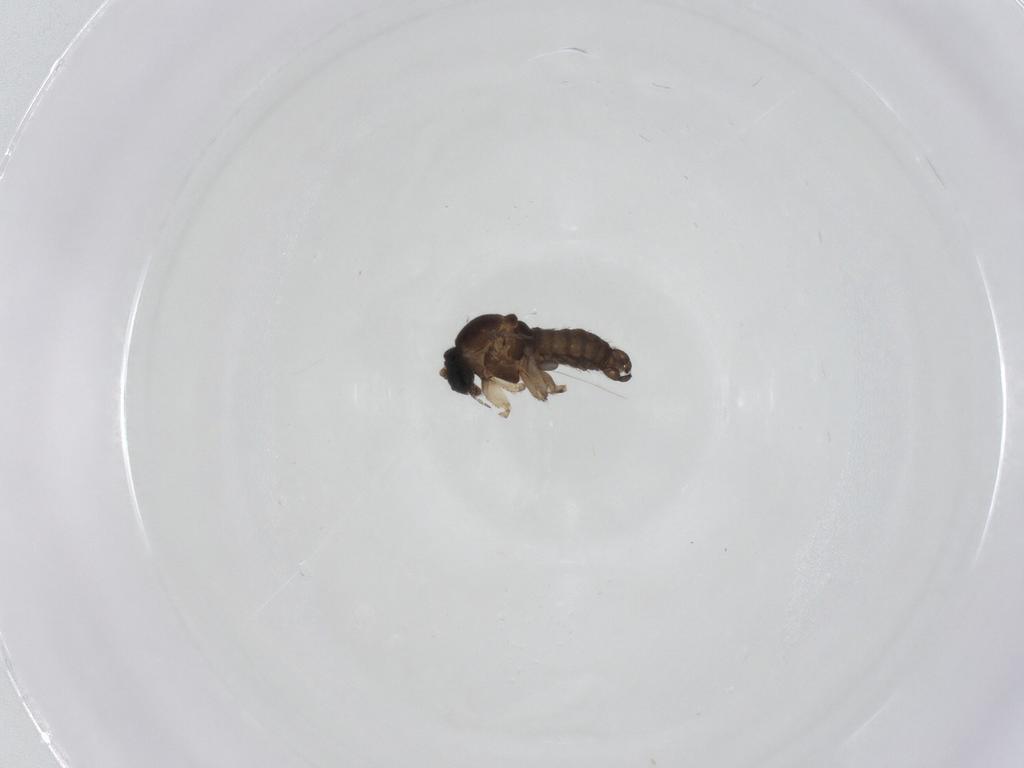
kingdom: Animalia
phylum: Arthropoda
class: Insecta
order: Diptera
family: Sciaridae
